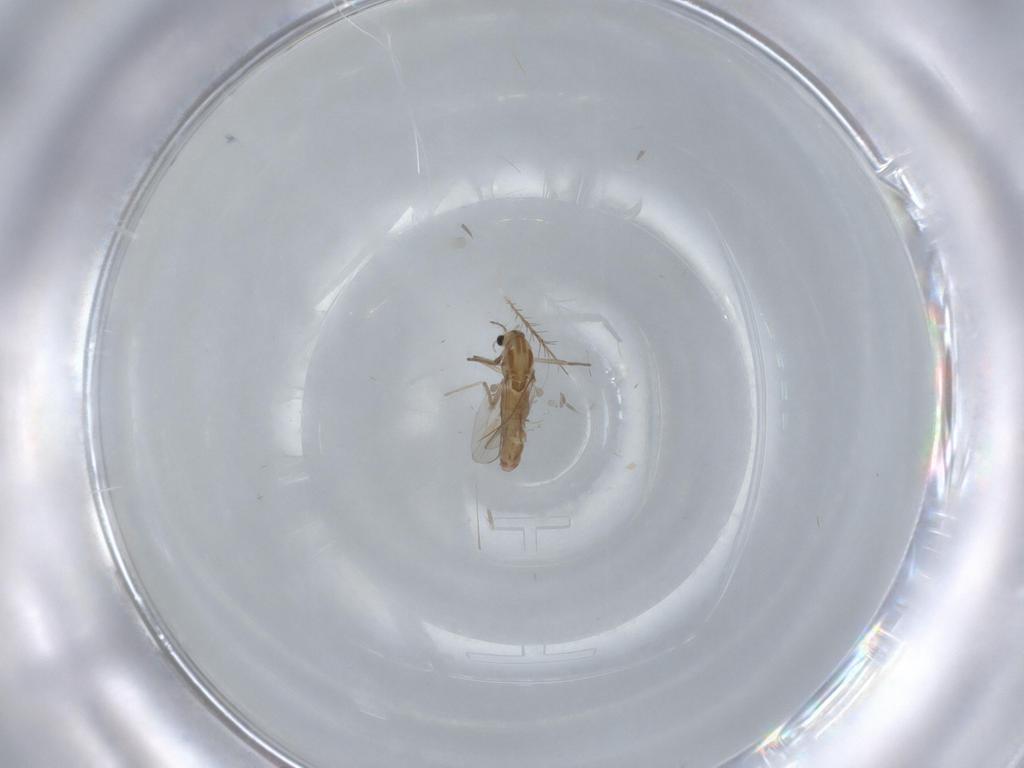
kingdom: Animalia
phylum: Arthropoda
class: Insecta
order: Diptera
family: Chironomidae
